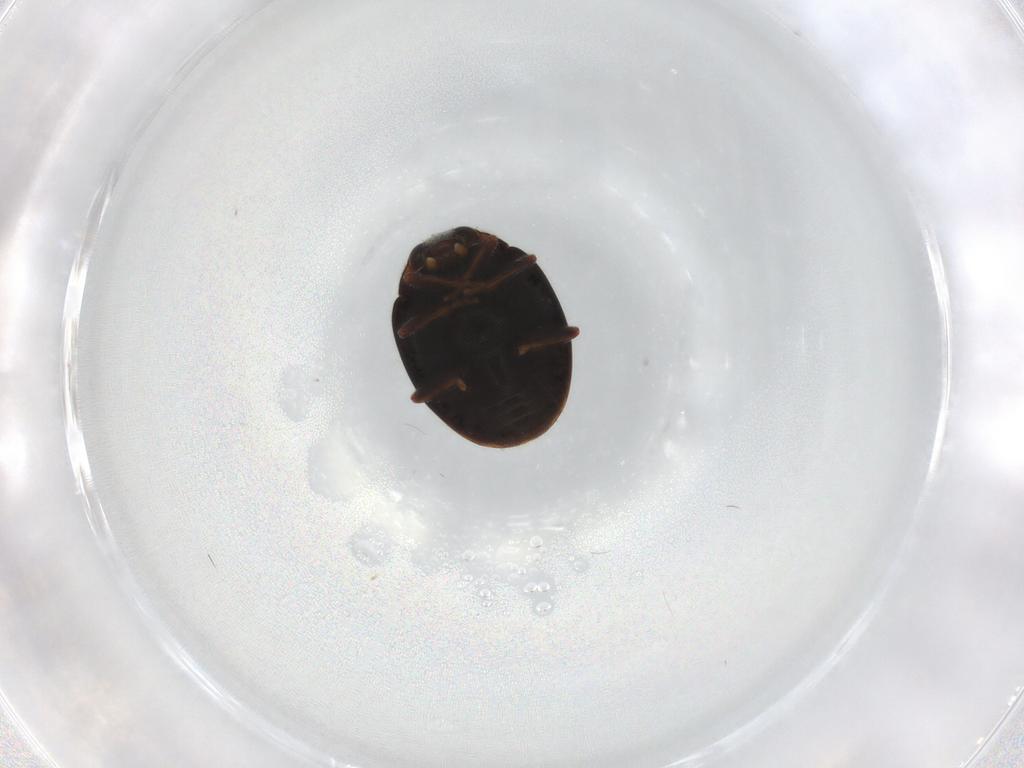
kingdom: Animalia
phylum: Arthropoda
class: Insecta
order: Coleoptera
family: Coccinellidae
